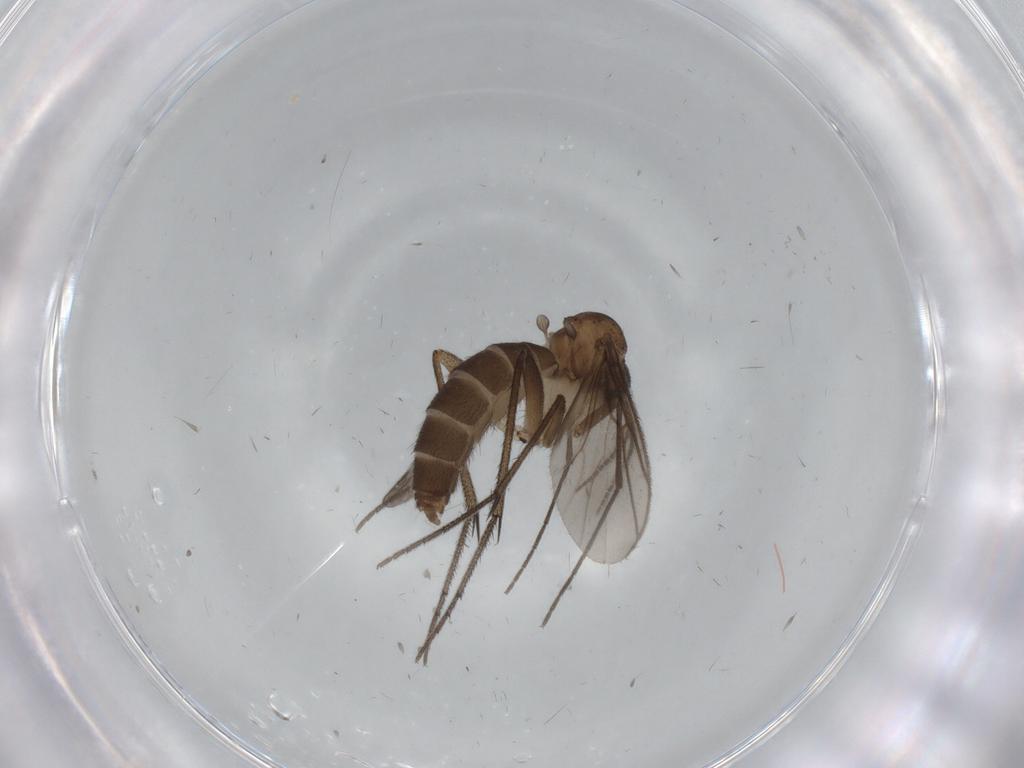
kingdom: Animalia
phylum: Arthropoda
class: Insecta
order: Diptera
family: Mycetophilidae
